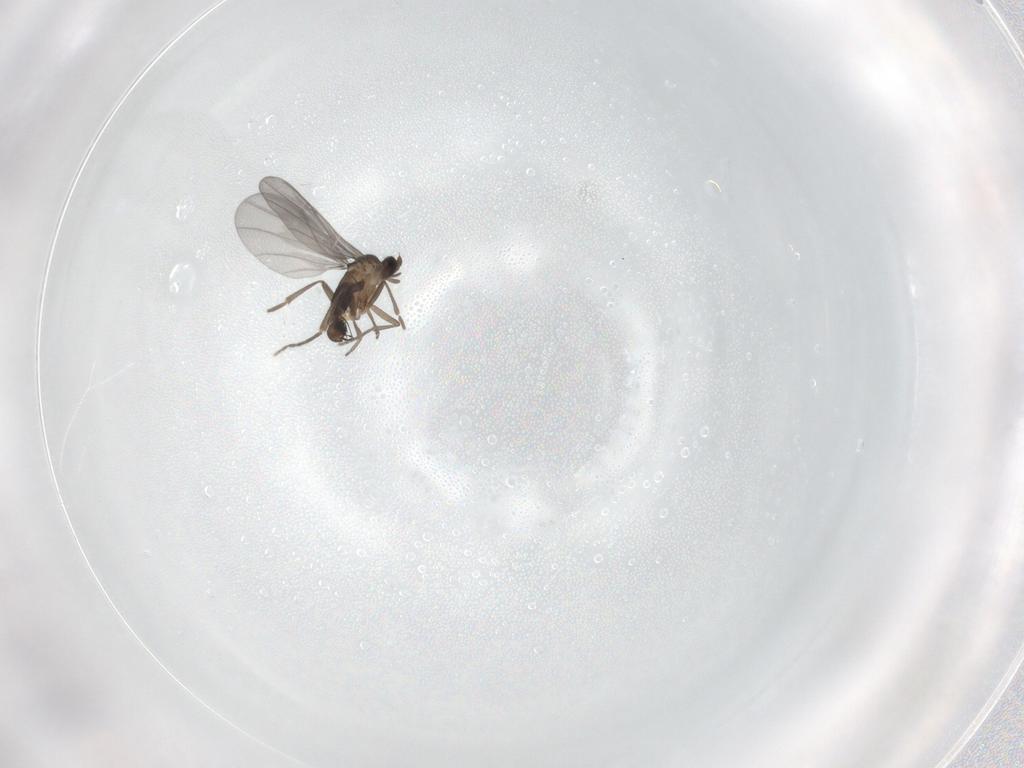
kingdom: Animalia
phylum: Arthropoda
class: Insecta
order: Diptera
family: Phoridae
